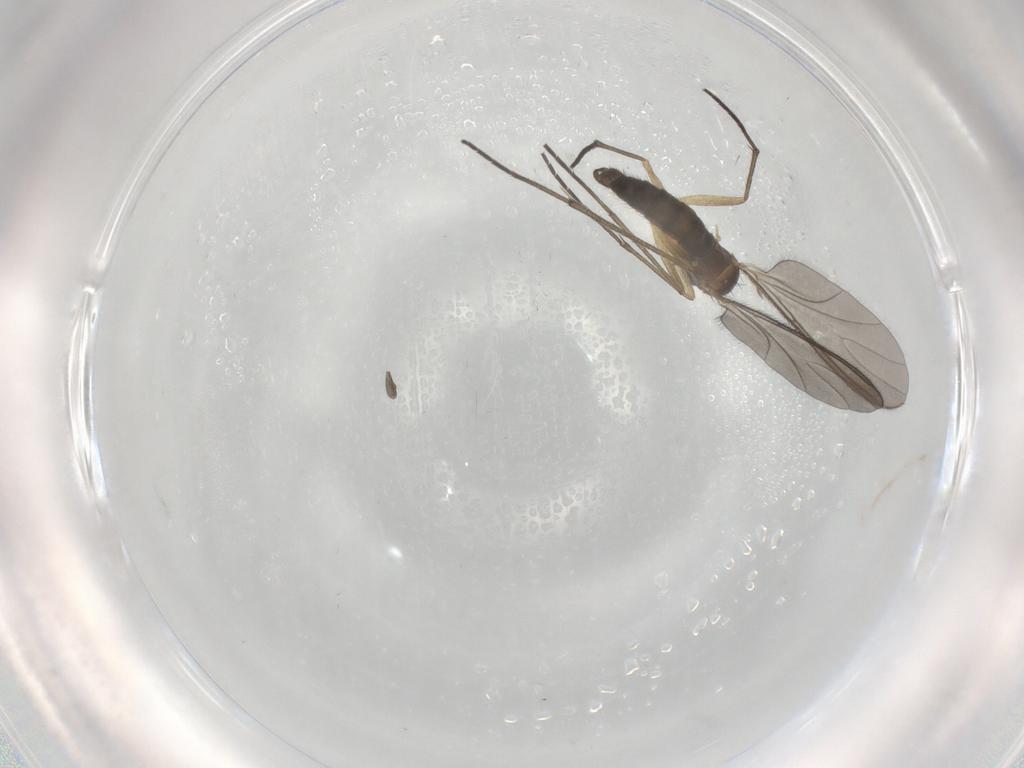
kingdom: Animalia
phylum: Arthropoda
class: Insecta
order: Diptera
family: Sciaridae
